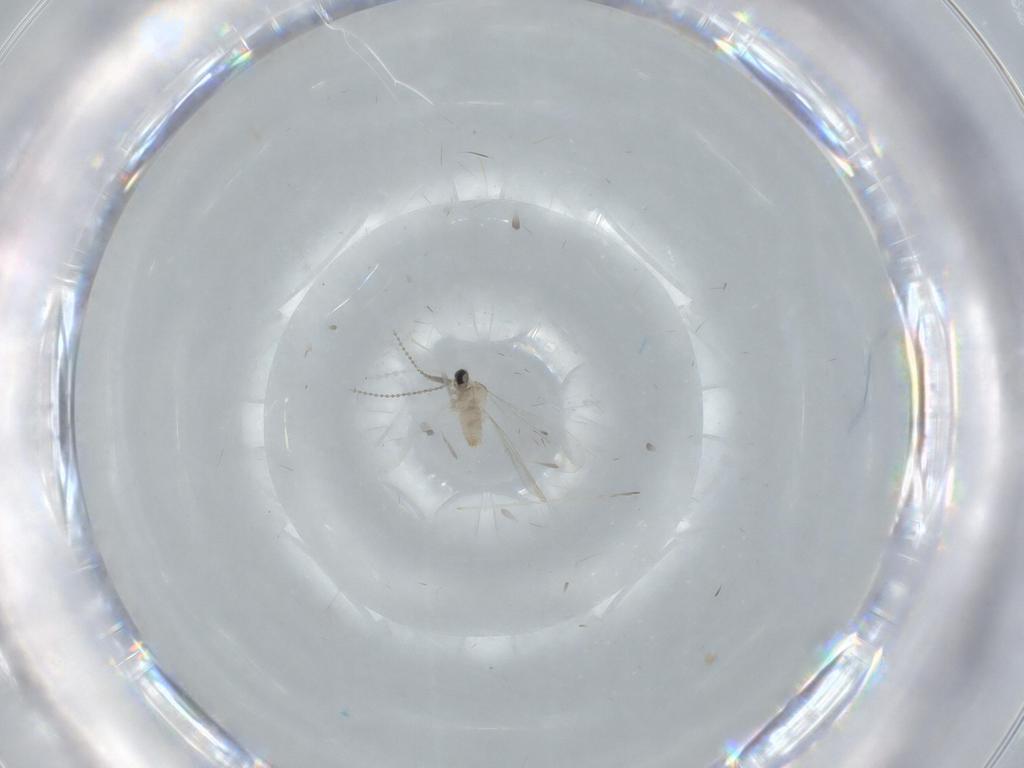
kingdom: Animalia
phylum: Arthropoda
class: Insecta
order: Diptera
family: Cecidomyiidae
